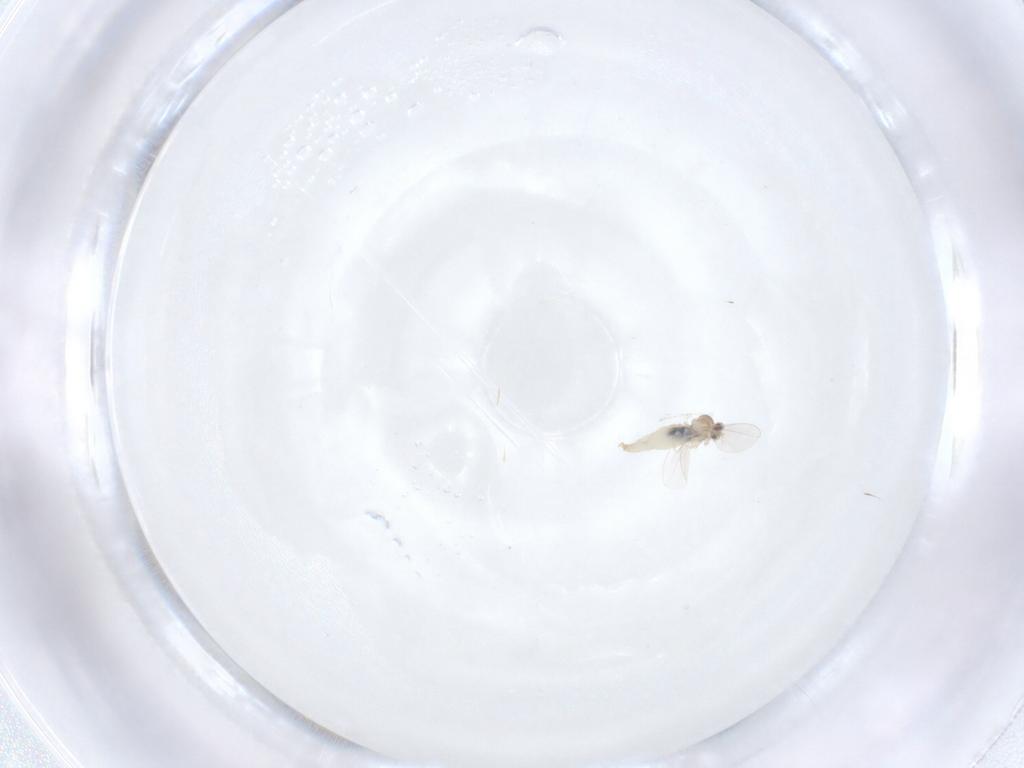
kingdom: Animalia
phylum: Arthropoda
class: Insecta
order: Diptera
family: Cecidomyiidae
